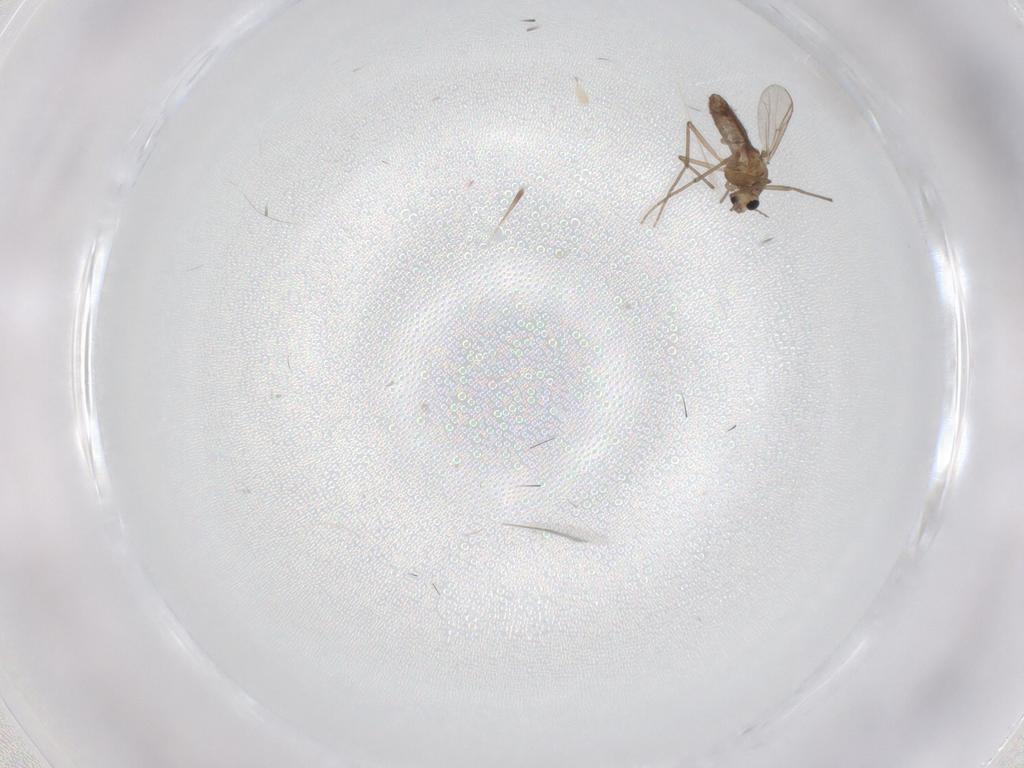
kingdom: Animalia
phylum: Arthropoda
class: Insecta
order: Diptera
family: Chironomidae
